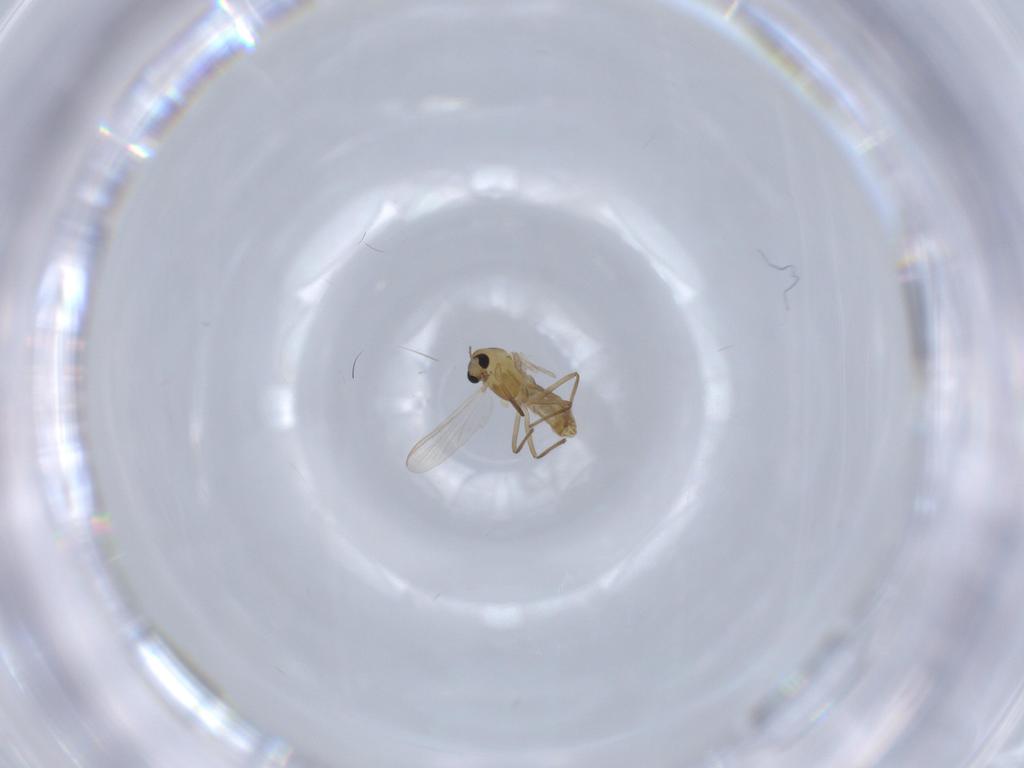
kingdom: Animalia
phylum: Arthropoda
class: Insecta
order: Diptera
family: Chironomidae
